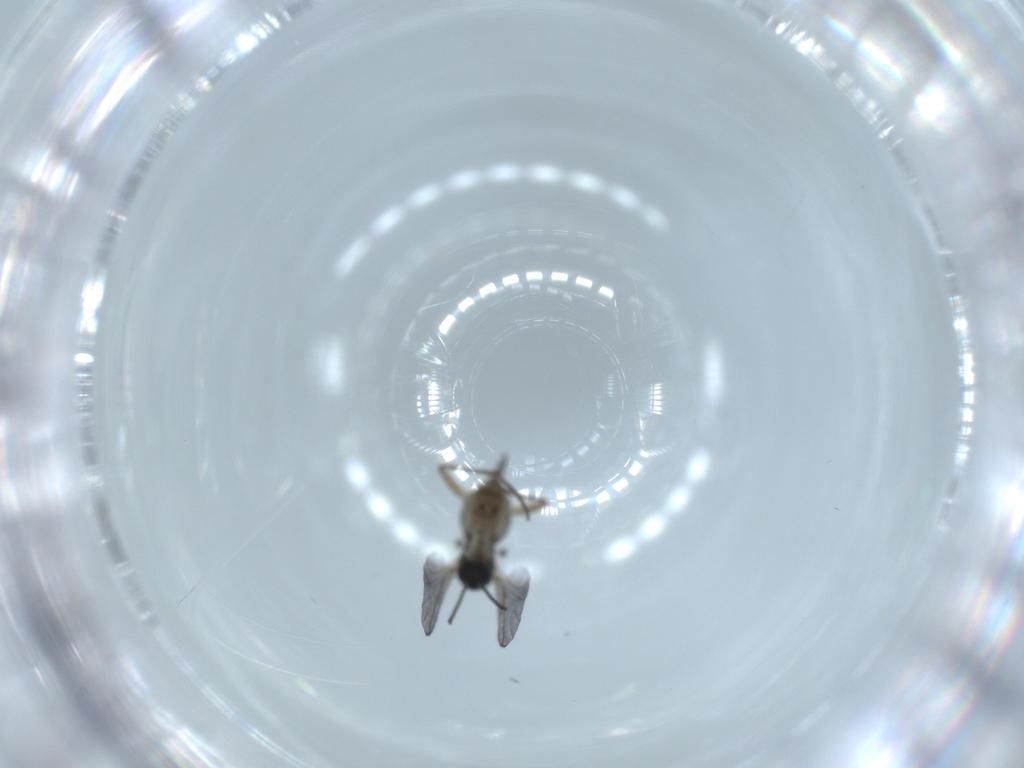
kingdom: Animalia
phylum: Arthropoda
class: Insecta
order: Diptera
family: Sciaridae
